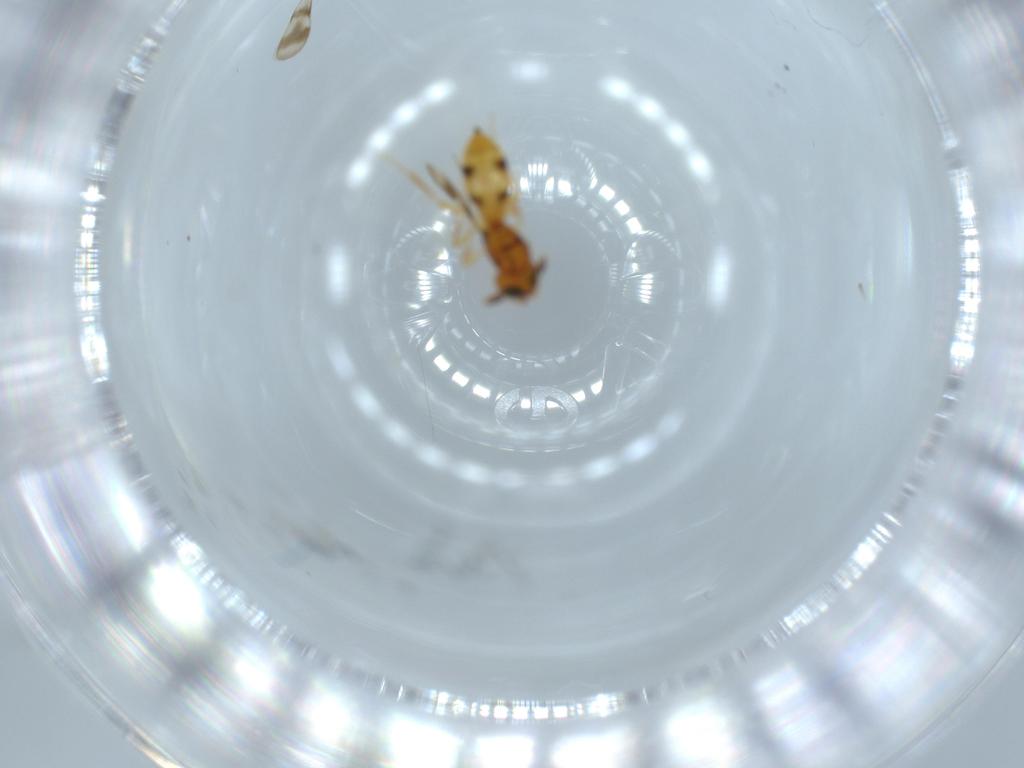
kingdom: Animalia
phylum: Arthropoda
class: Insecta
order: Hymenoptera
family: Scelionidae
